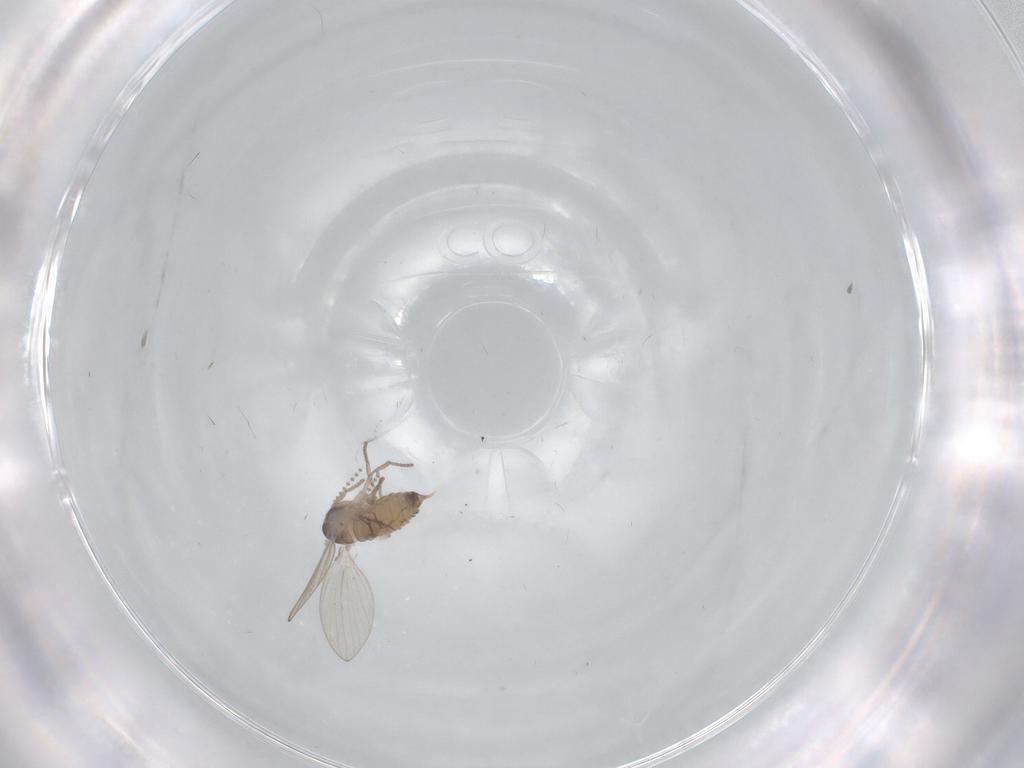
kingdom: Animalia
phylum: Arthropoda
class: Insecta
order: Diptera
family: Psychodidae
